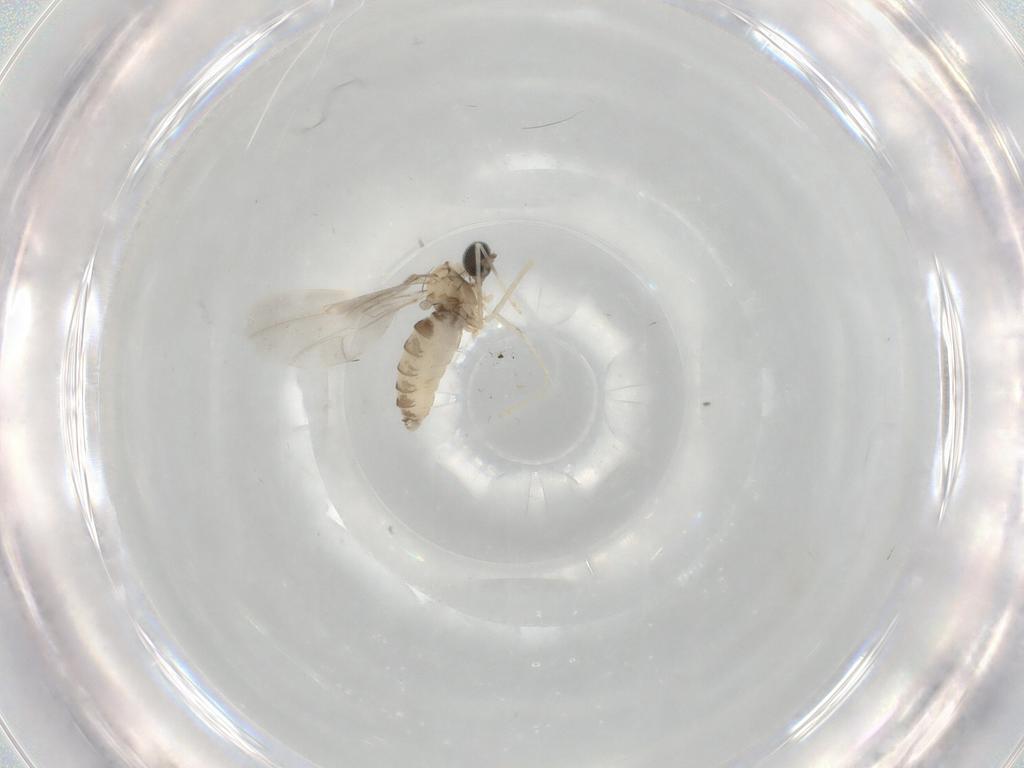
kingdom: Animalia
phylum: Arthropoda
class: Insecta
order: Diptera
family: Cecidomyiidae
